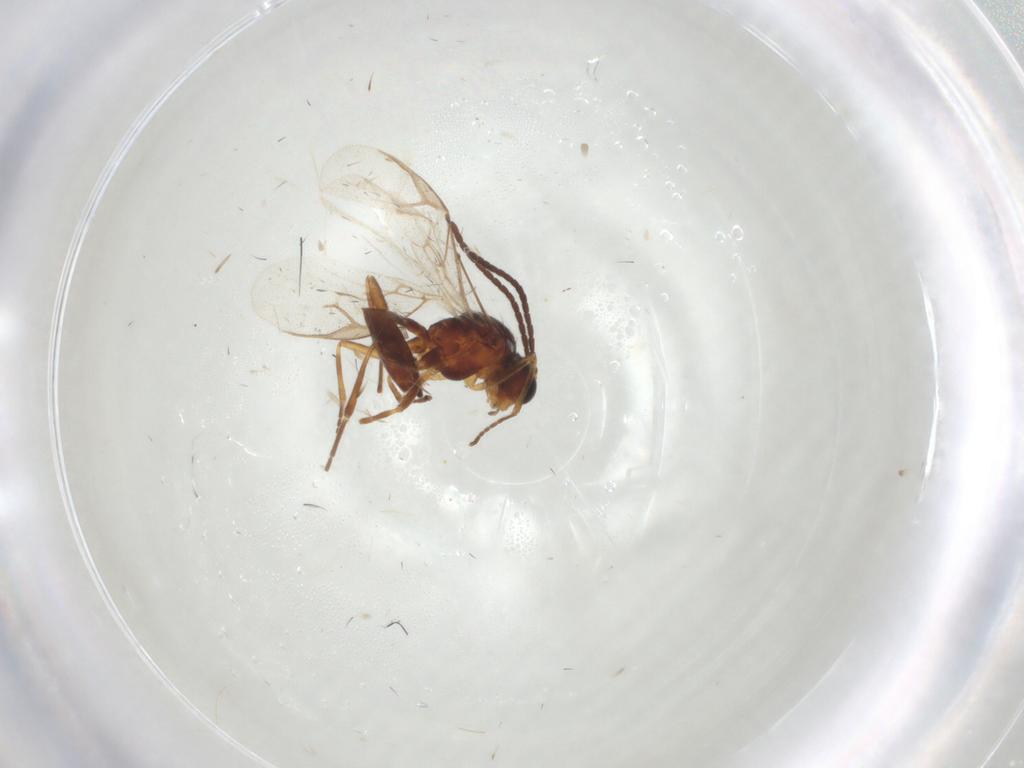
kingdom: Animalia
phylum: Arthropoda
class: Insecta
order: Hymenoptera
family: Braconidae
